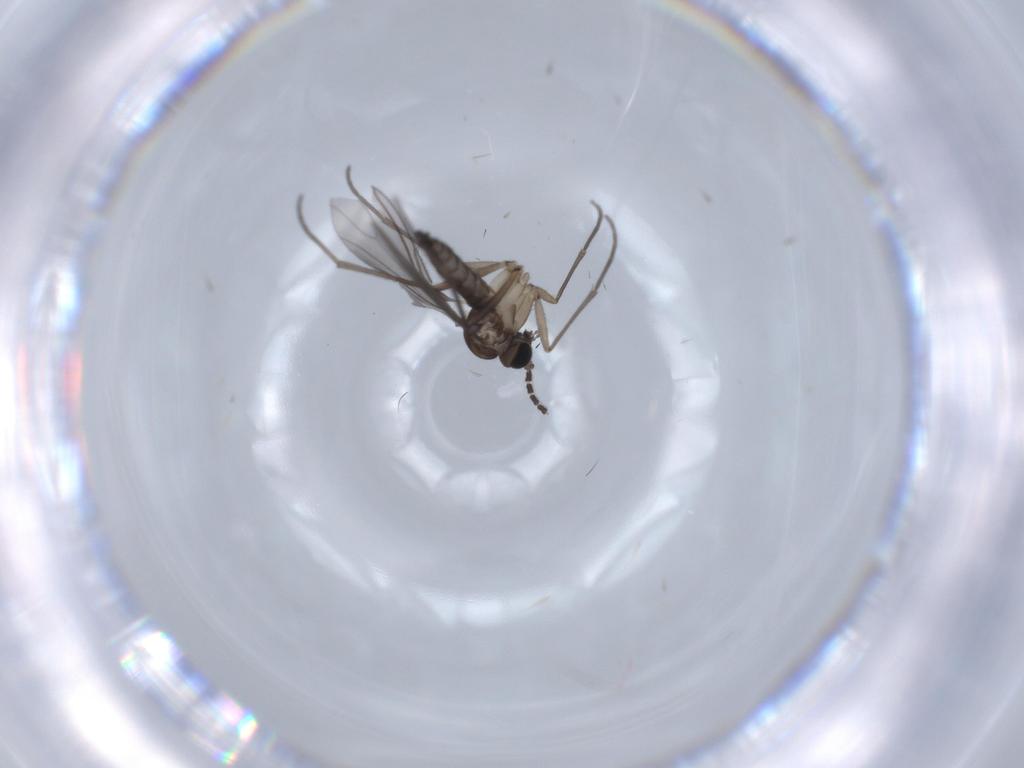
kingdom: Animalia
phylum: Arthropoda
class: Insecta
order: Diptera
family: Sciaridae
